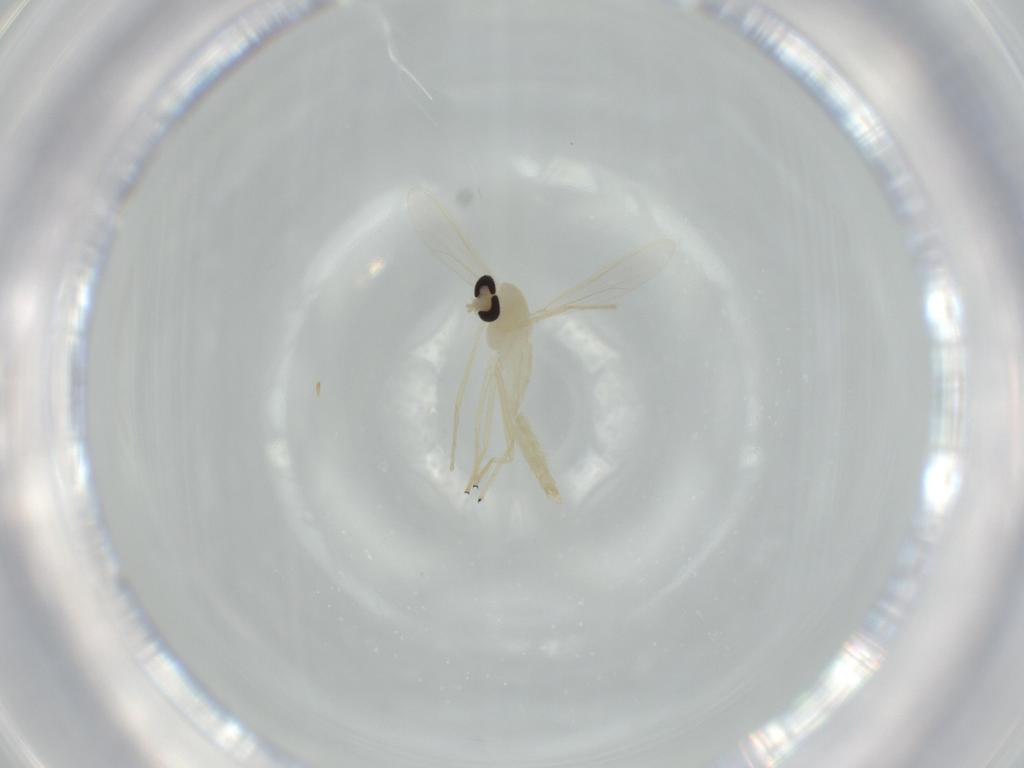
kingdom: Animalia
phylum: Arthropoda
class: Insecta
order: Diptera
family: Chironomidae
